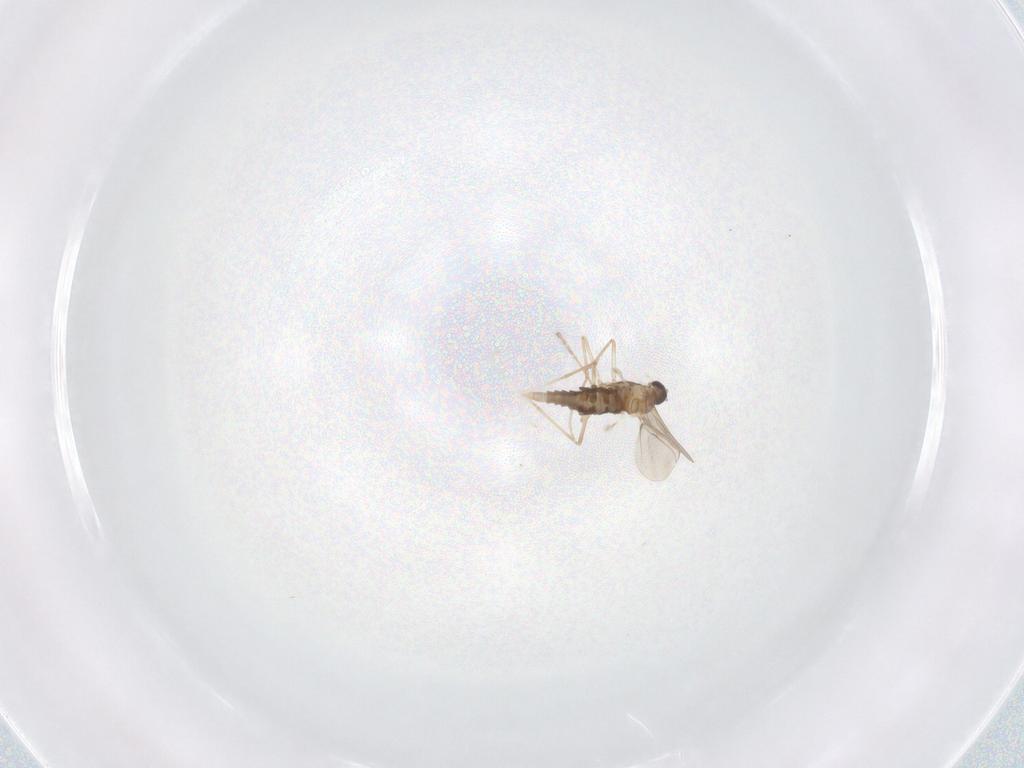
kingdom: Animalia
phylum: Arthropoda
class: Insecta
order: Diptera
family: Cecidomyiidae
